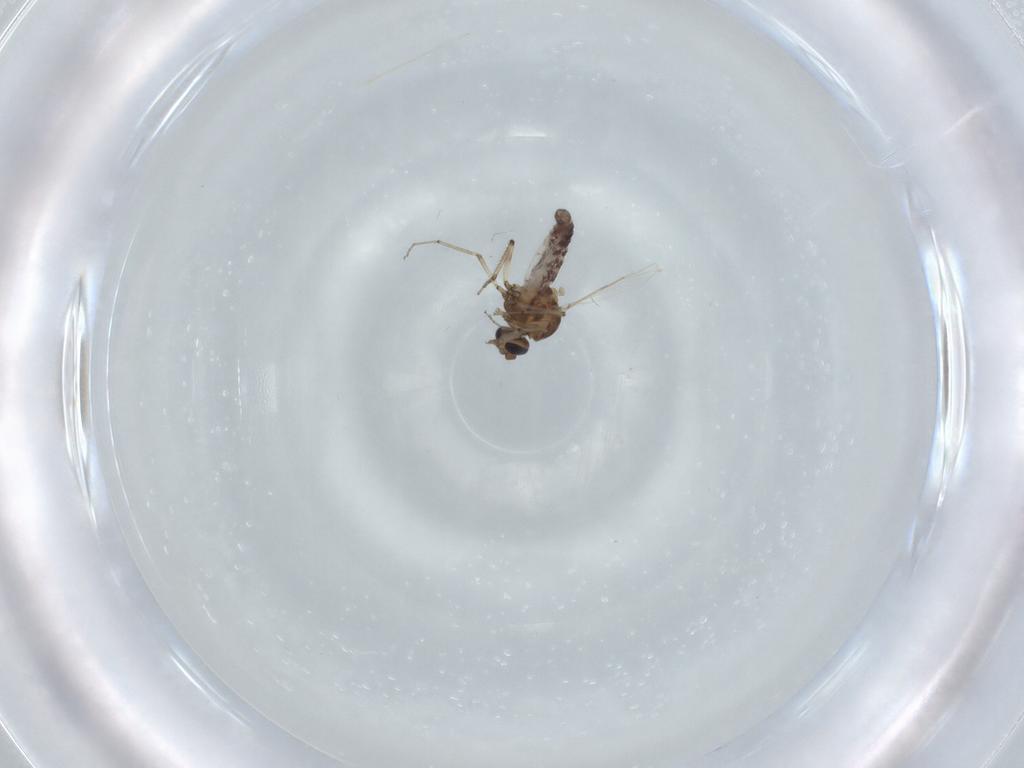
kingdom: Animalia
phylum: Arthropoda
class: Insecta
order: Diptera
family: Ceratopogonidae
